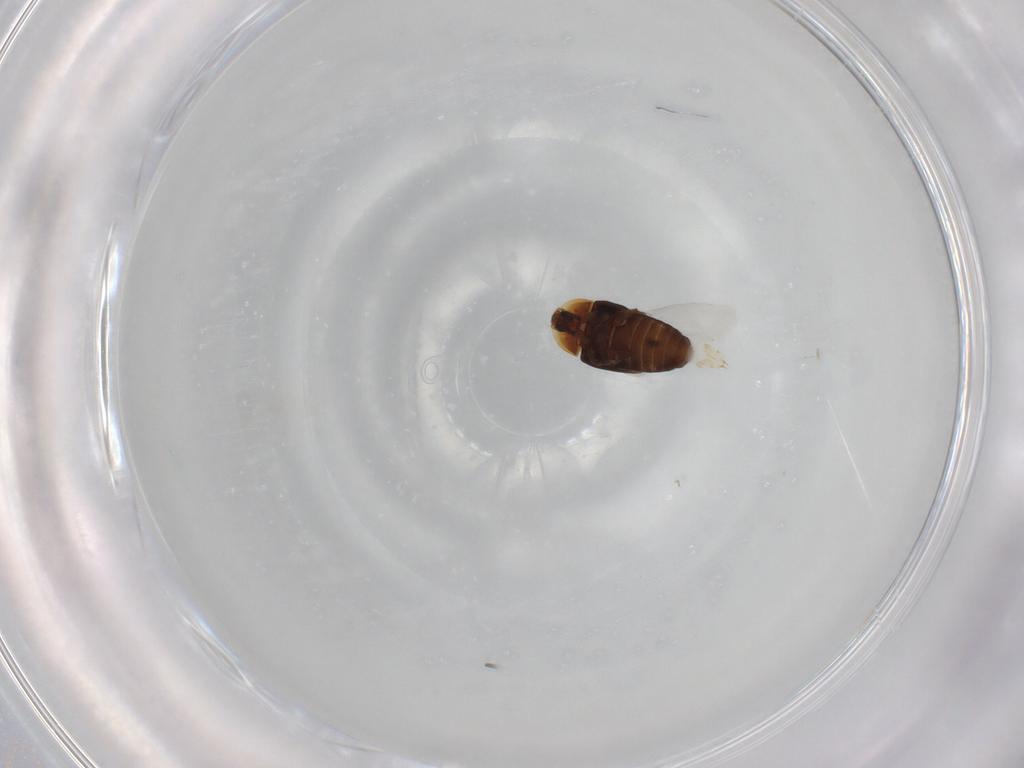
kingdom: Animalia
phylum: Arthropoda
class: Insecta
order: Coleoptera
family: Corylophidae
